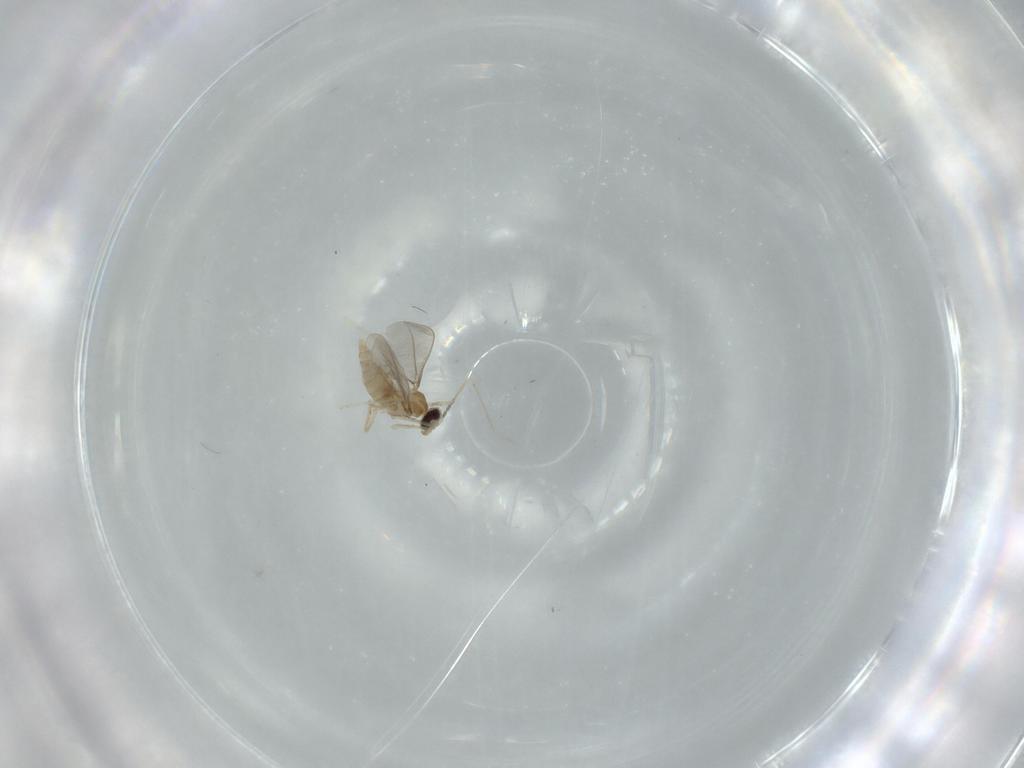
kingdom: Animalia
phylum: Arthropoda
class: Insecta
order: Diptera
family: Cecidomyiidae
